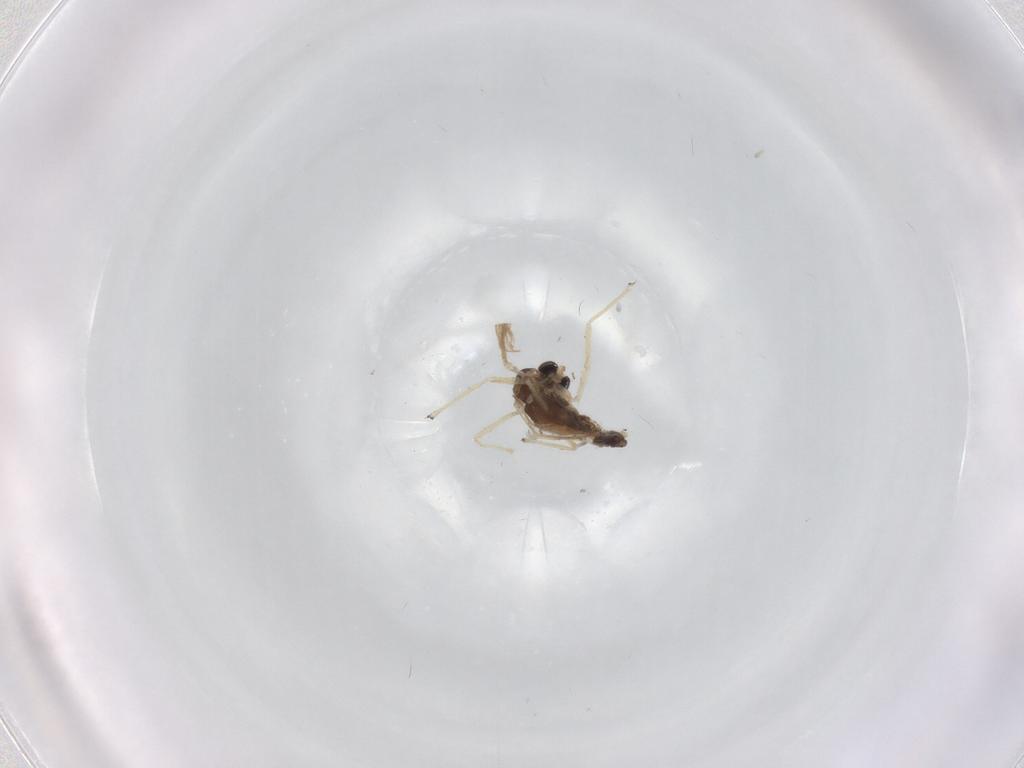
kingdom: Animalia
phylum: Arthropoda
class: Insecta
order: Diptera
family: Chironomidae
